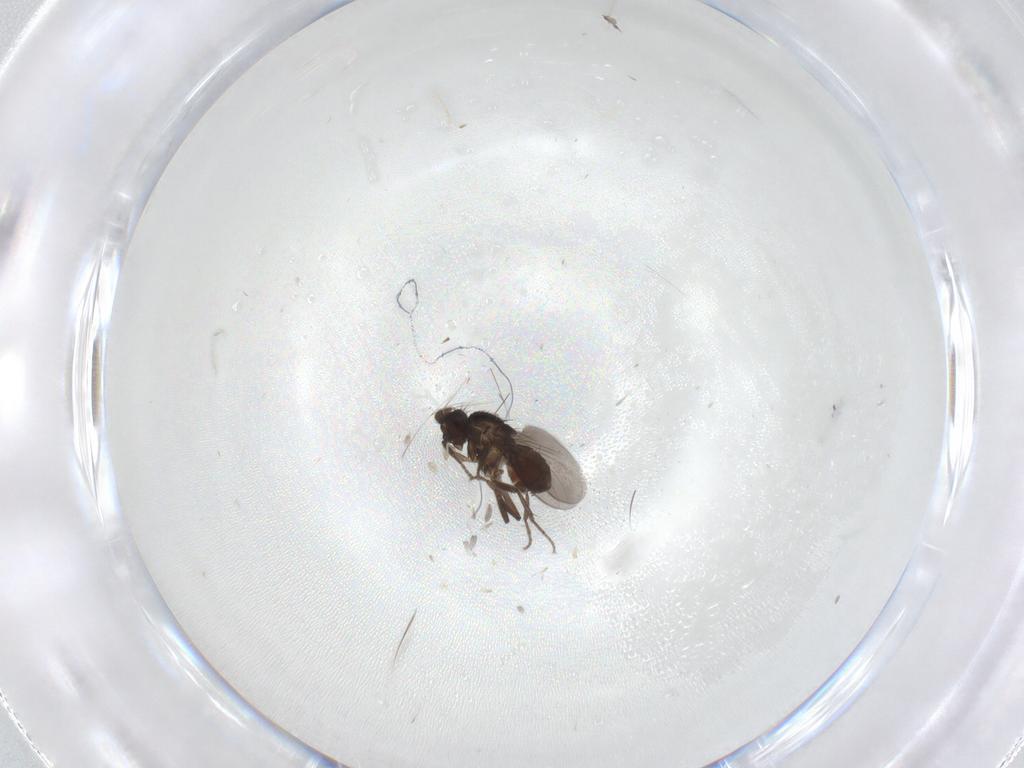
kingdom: Animalia
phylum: Arthropoda
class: Insecta
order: Diptera
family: Sphaeroceridae
